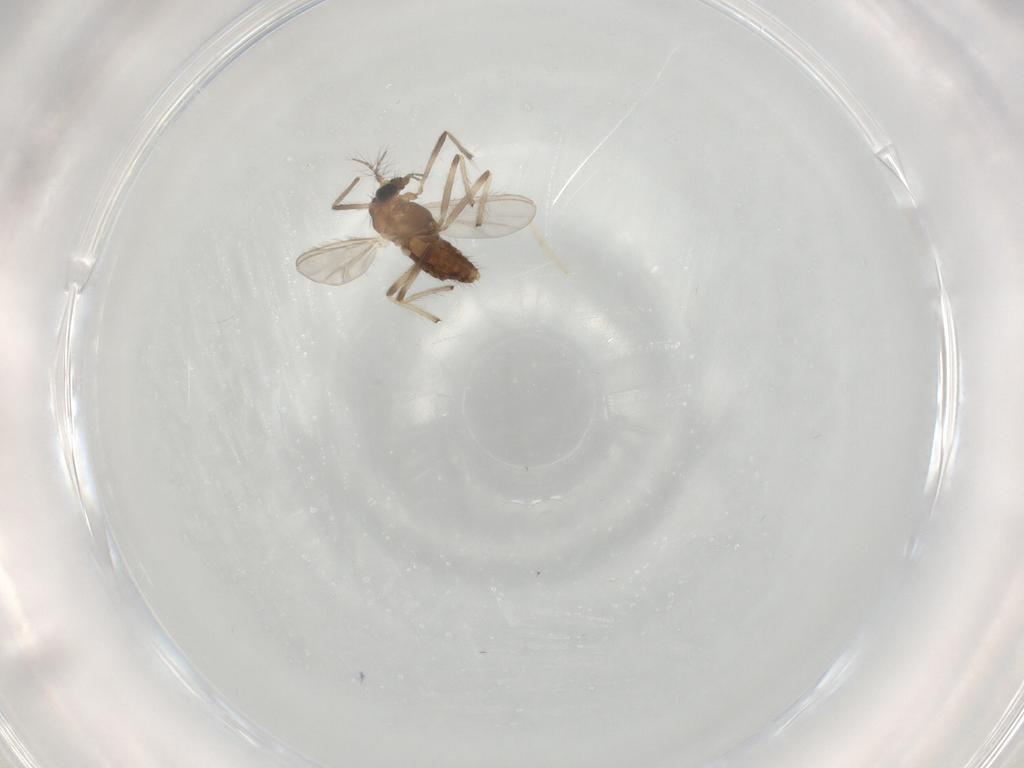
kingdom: Animalia
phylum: Arthropoda
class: Insecta
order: Diptera
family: Chironomidae
